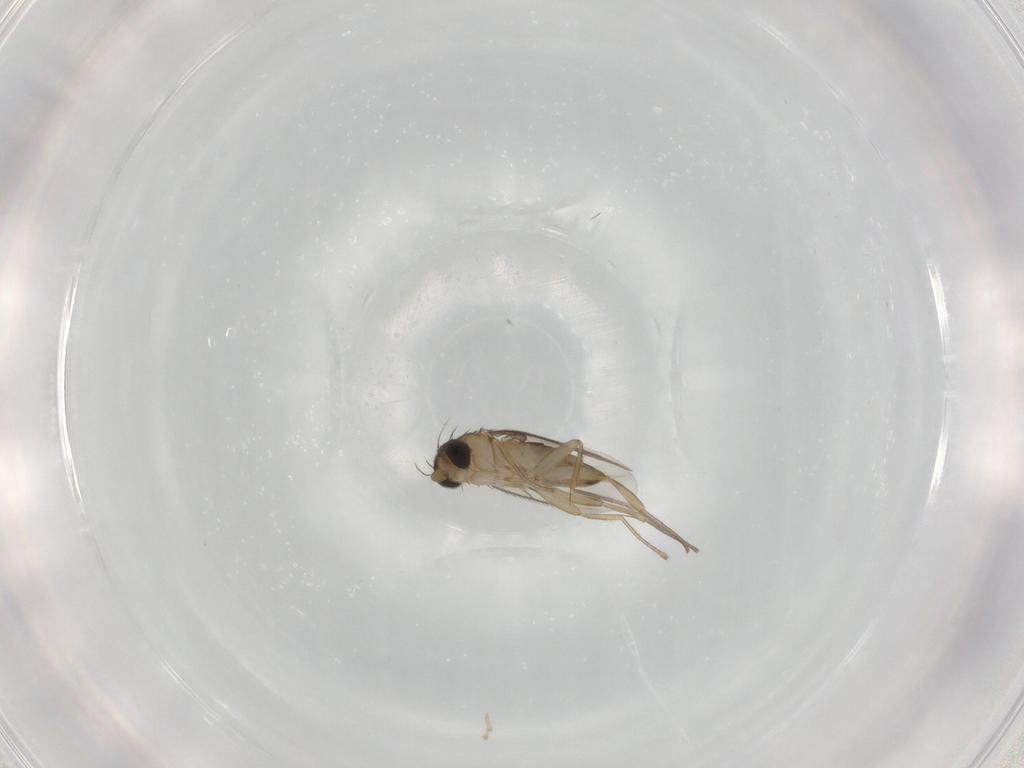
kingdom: Animalia
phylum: Arthropoda
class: Insecta
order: Diptera
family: Phoridae
